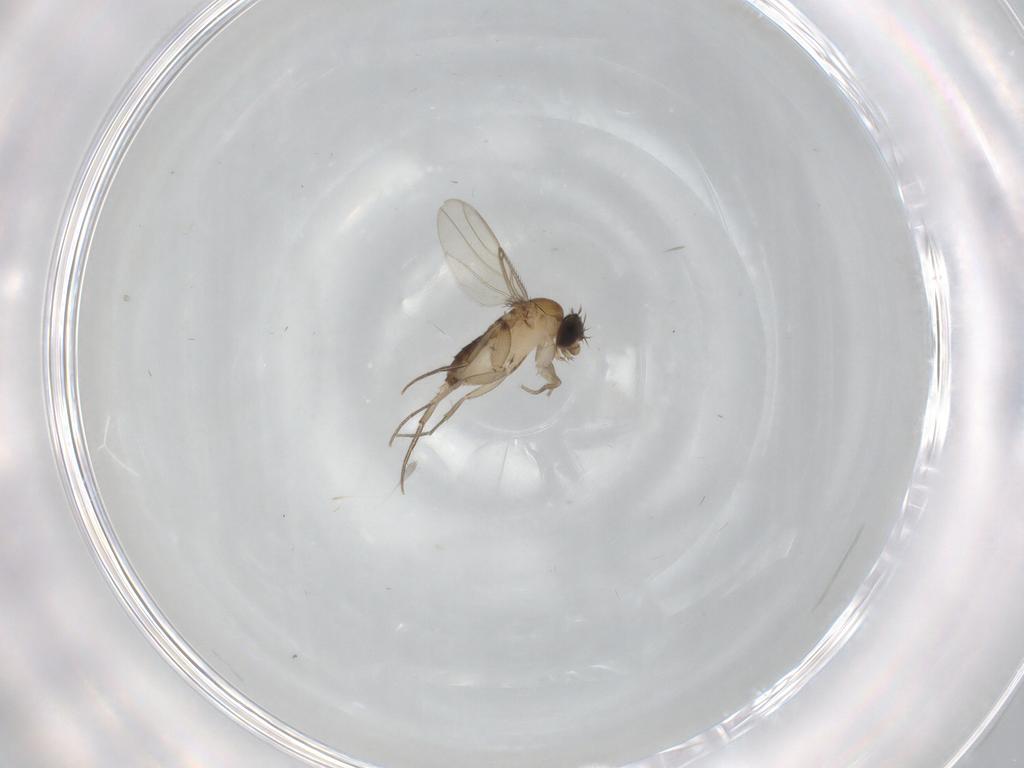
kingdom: Animalia
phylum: Arthropoda
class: Insecta
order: Diptera
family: Phoridae
